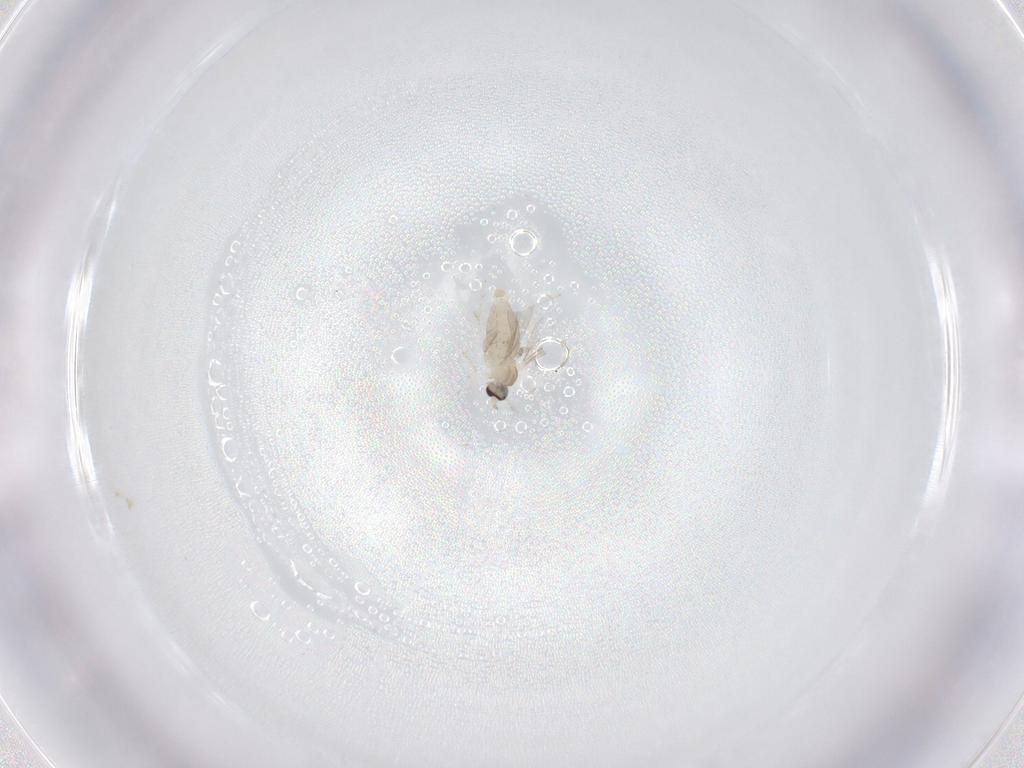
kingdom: Animalia
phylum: Arthropoda
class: Insecta
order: Diptera
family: Cecidomyiidae
